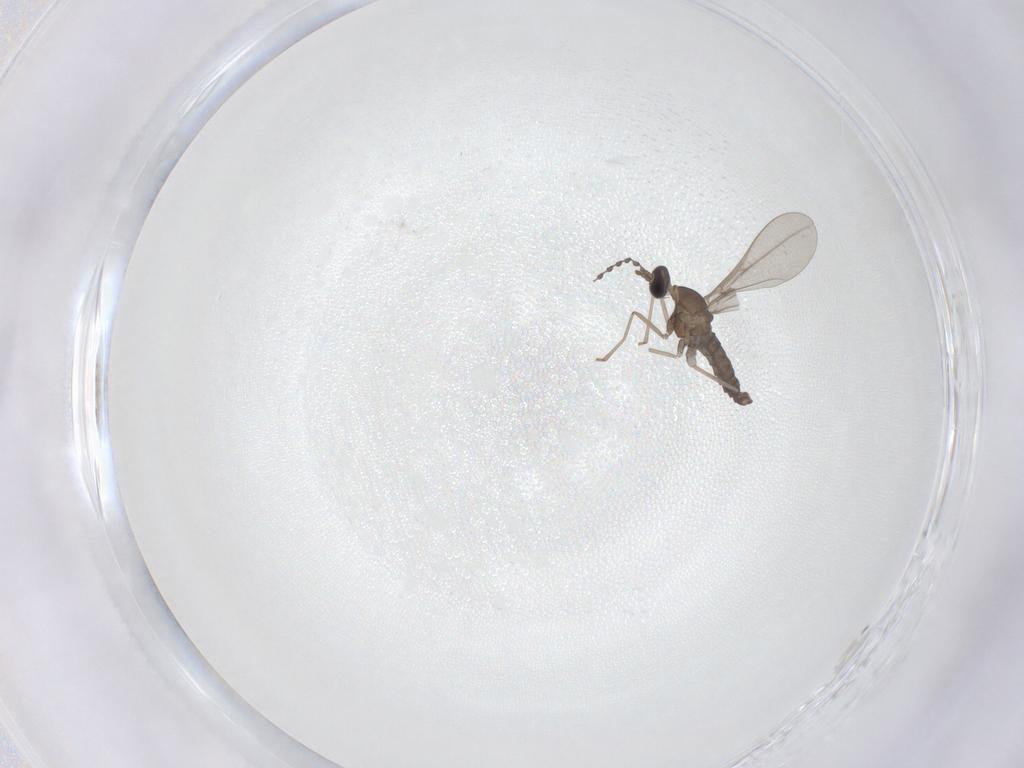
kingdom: Animalia
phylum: Arthropoda
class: Insecta
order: Diptera
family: Cecidomyiidae
